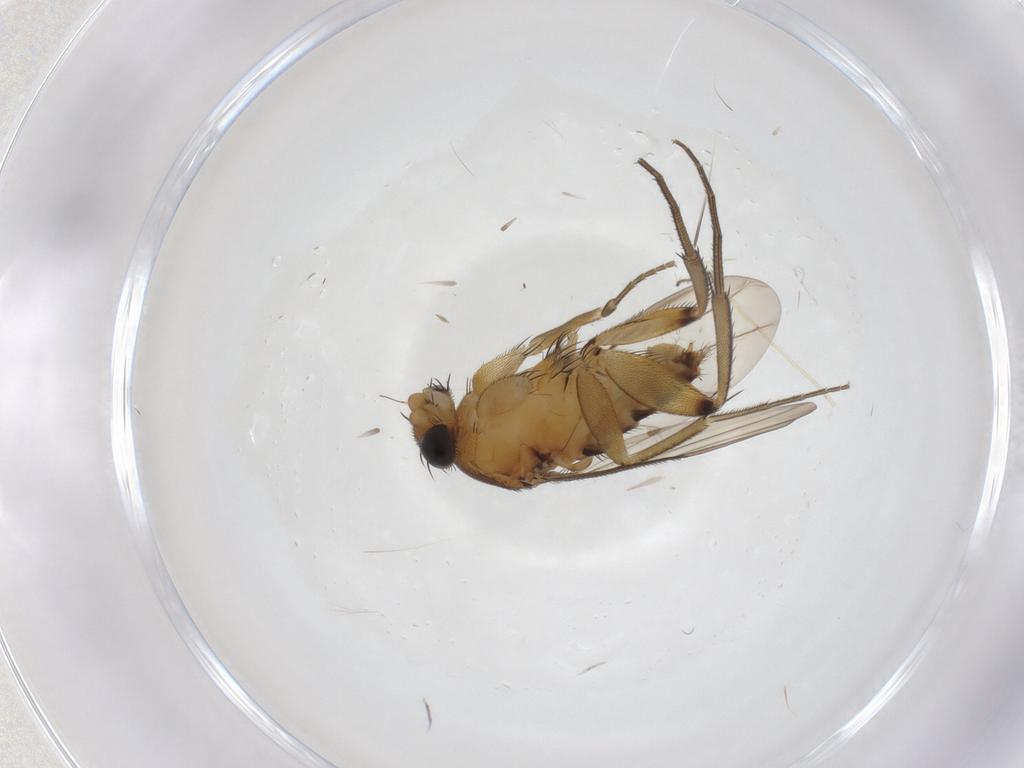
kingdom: Animalia
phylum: Arthropoda
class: Insecta
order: Diptera
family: Phoridae
